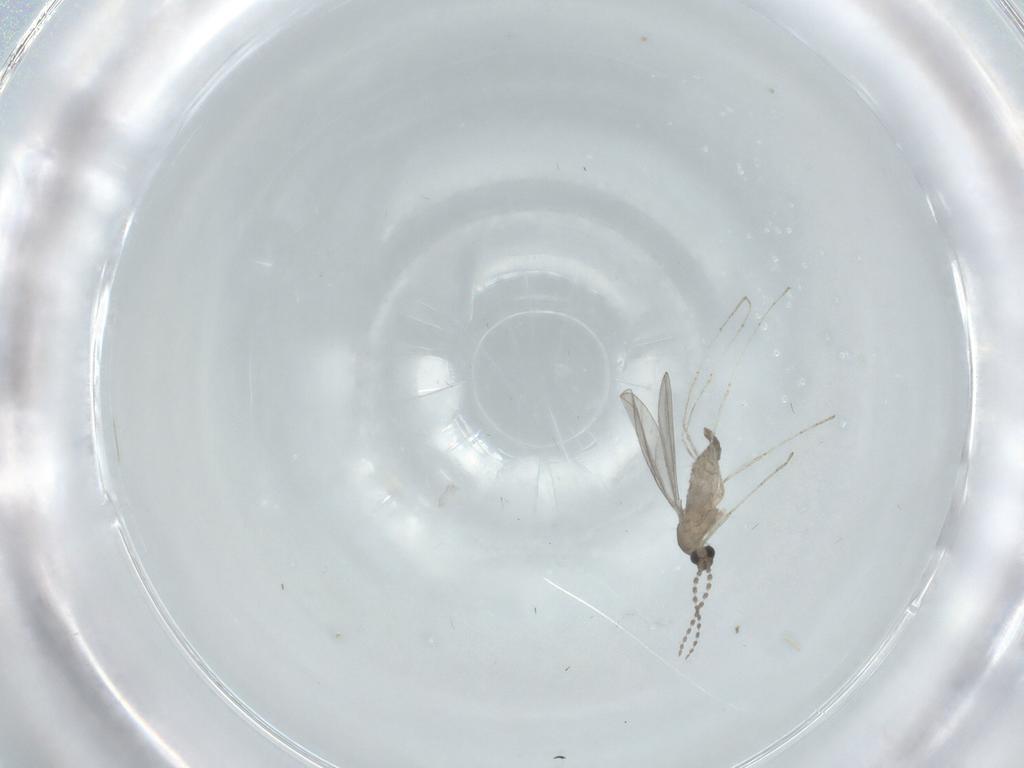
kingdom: Animalia
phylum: Arthropoda
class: Insecta
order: Diptera
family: Cecidomyiidae
